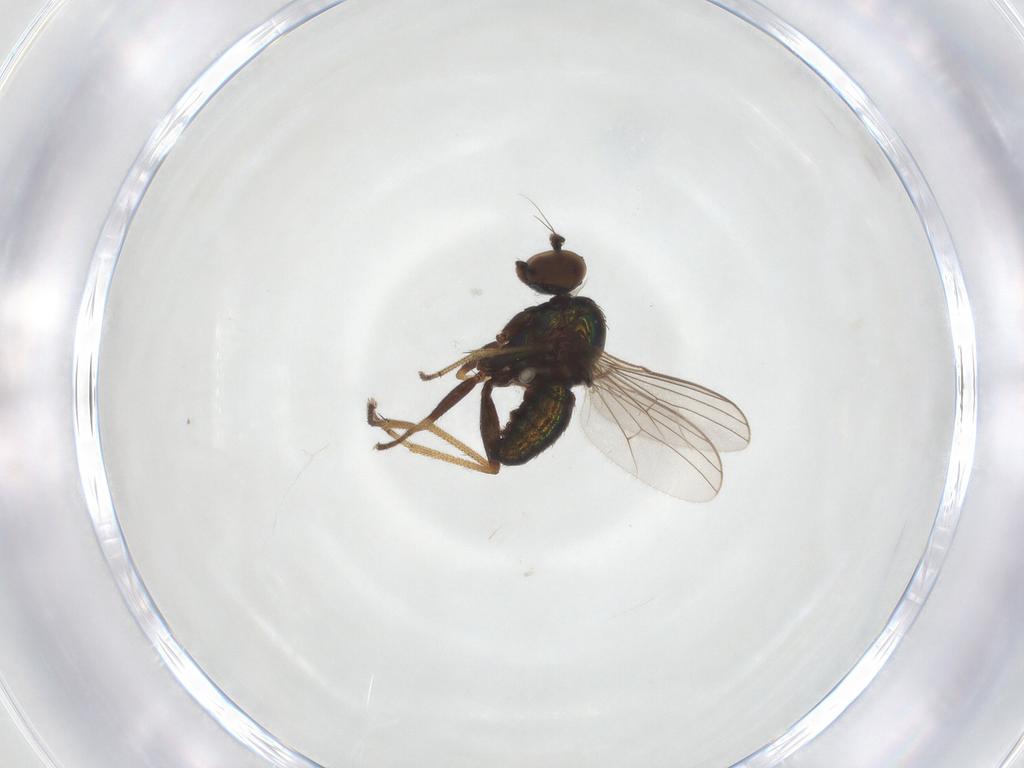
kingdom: Animalia
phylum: Arthropoda
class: Insecta
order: Diptera
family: Dolichopodidae
